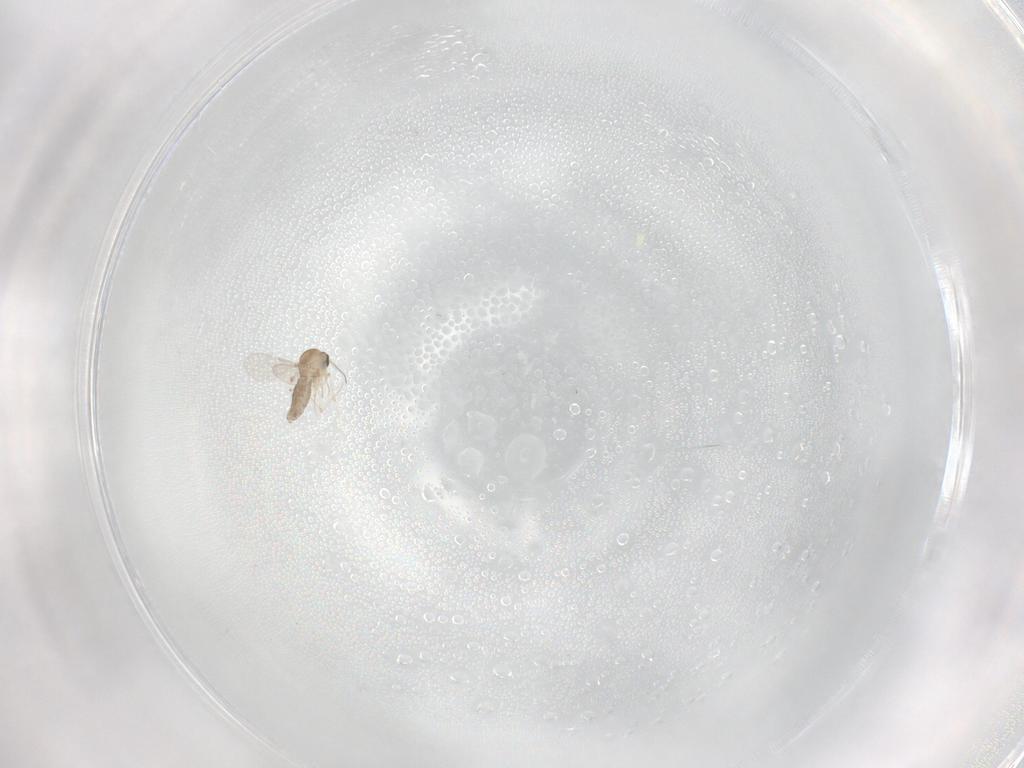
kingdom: Animalia
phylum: Arthropoda
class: Insecta
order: Diptera
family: Ceratopogonidae
